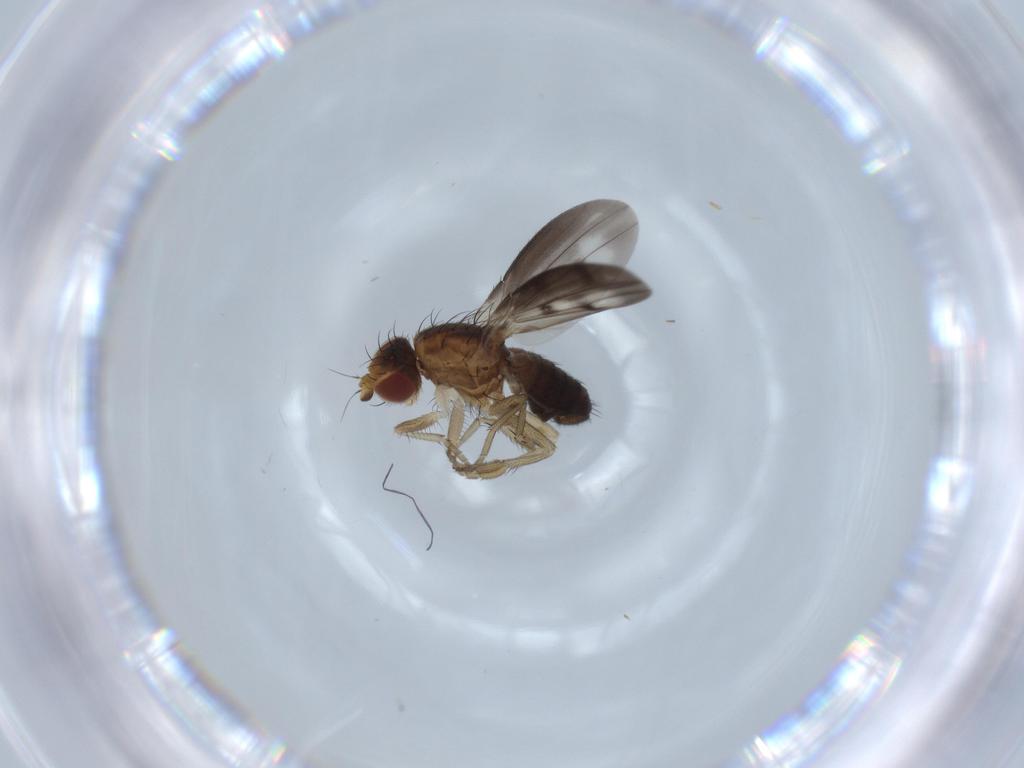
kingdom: Animalia
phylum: Arthropoda
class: Insecta
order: Diptera
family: Heleomyzidae
